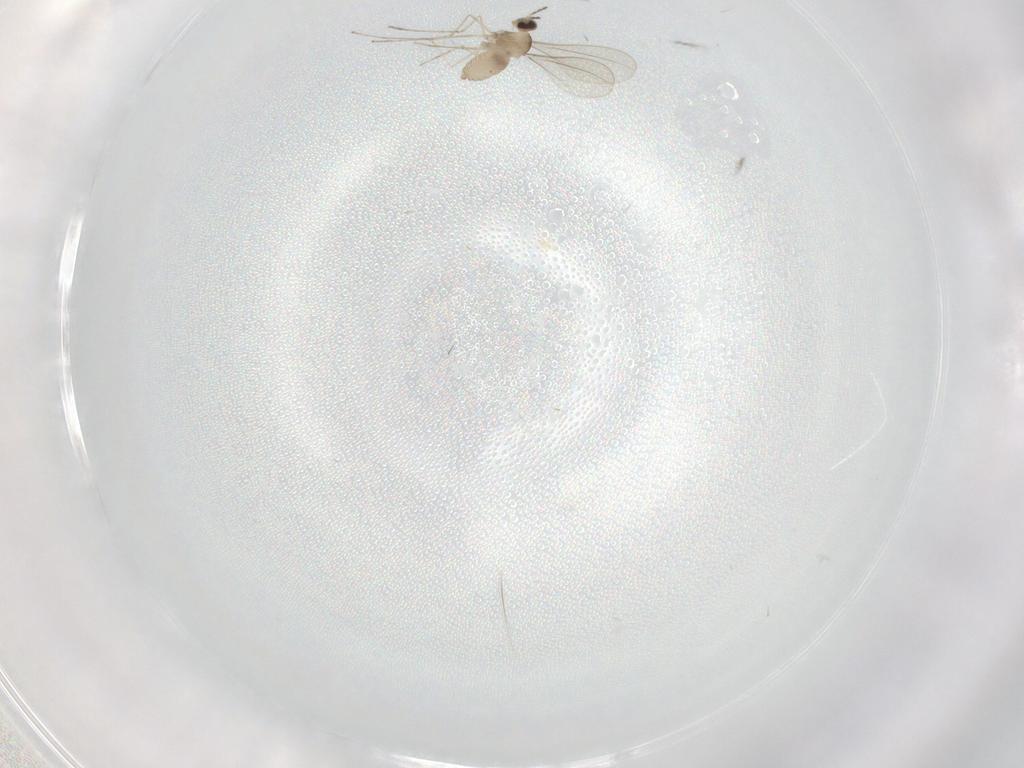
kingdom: Animalia
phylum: Arthropoda
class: Insecta
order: Diptera
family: Cecidomyiidae
